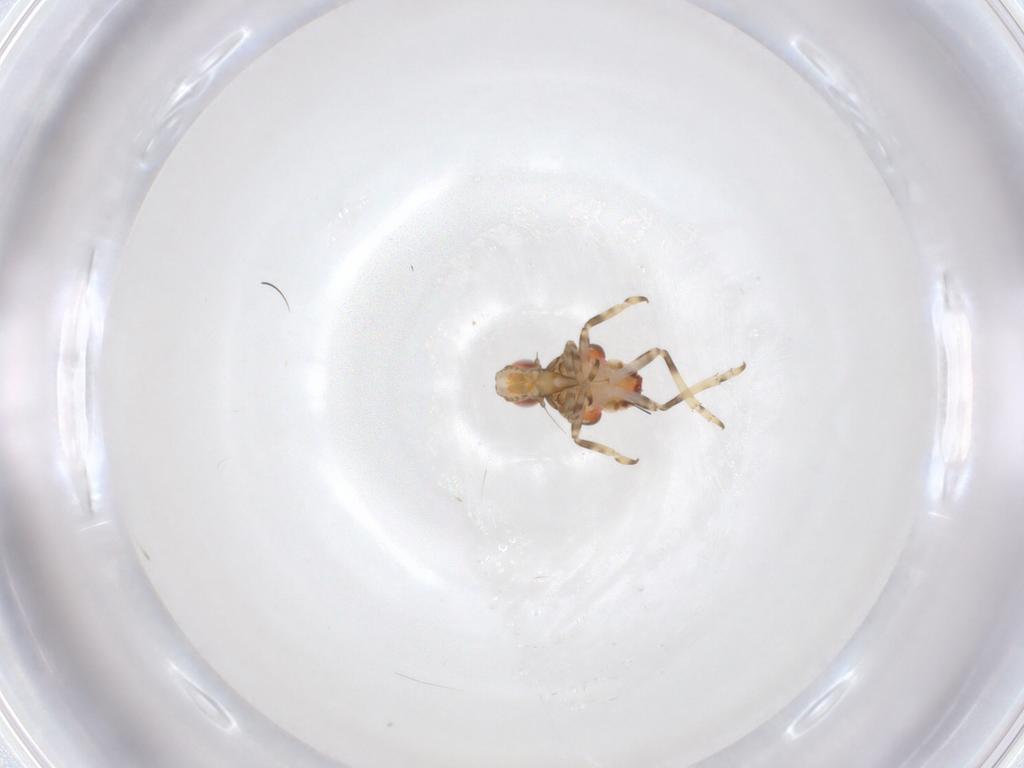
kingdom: Animalia
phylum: Arthropoda
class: Insecta
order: Hemiptera
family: Tropiduchidae
